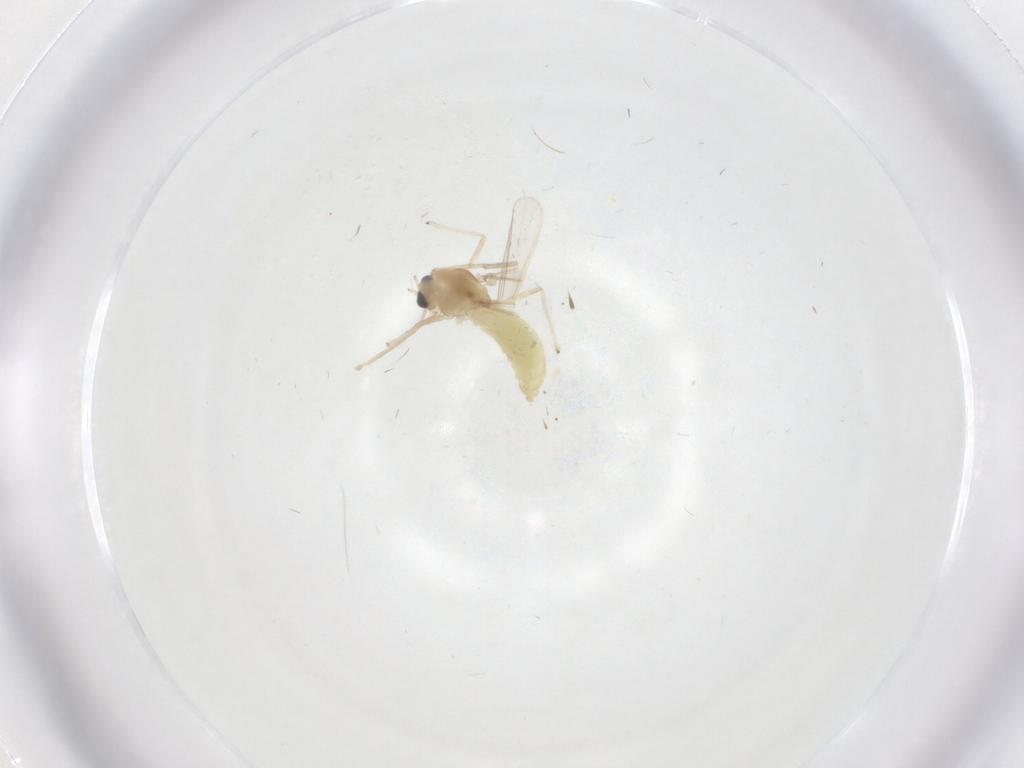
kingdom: Animalia
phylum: Arthropoda
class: Insecta
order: Diptera
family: Chironomidae
